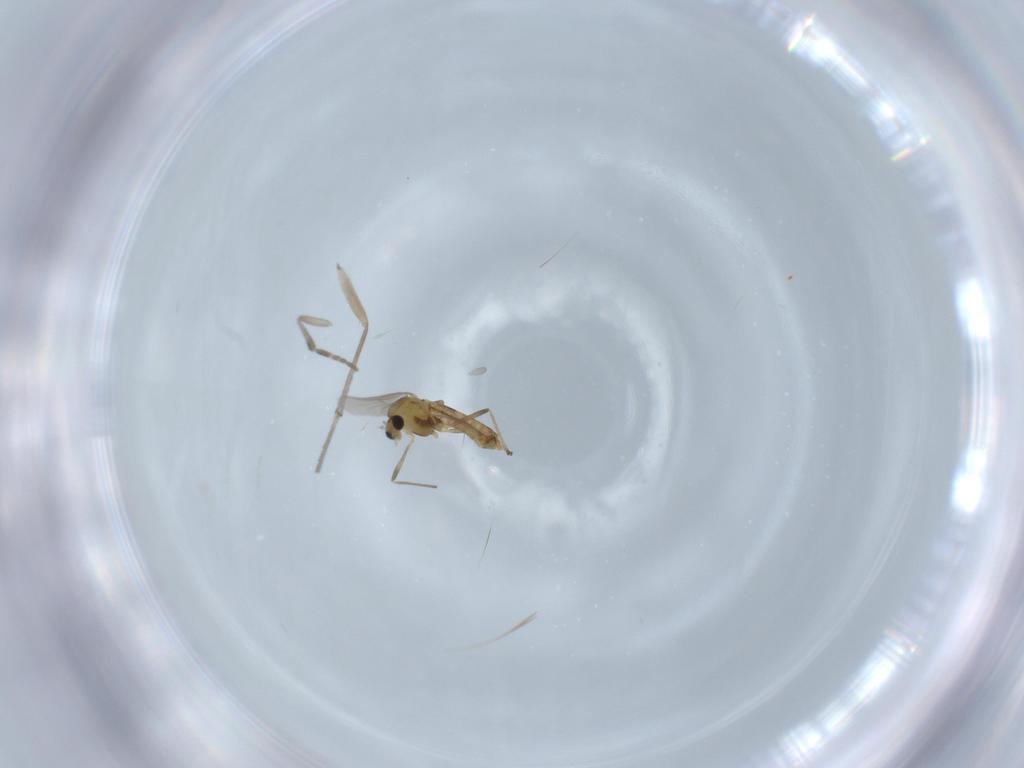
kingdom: Animalia
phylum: Arthropoda
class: Insecta
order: Diptera
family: Chironomidae
